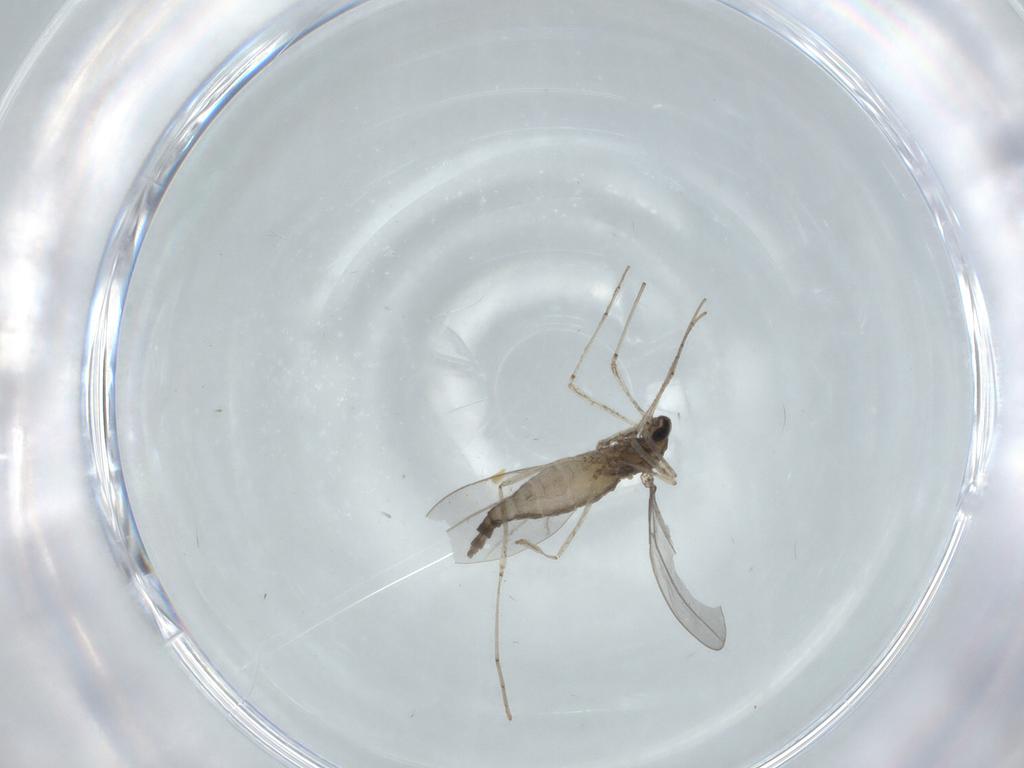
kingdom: Animalia
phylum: Arthropoda
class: Insecta
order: Diptera
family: Cecidomyiidae
